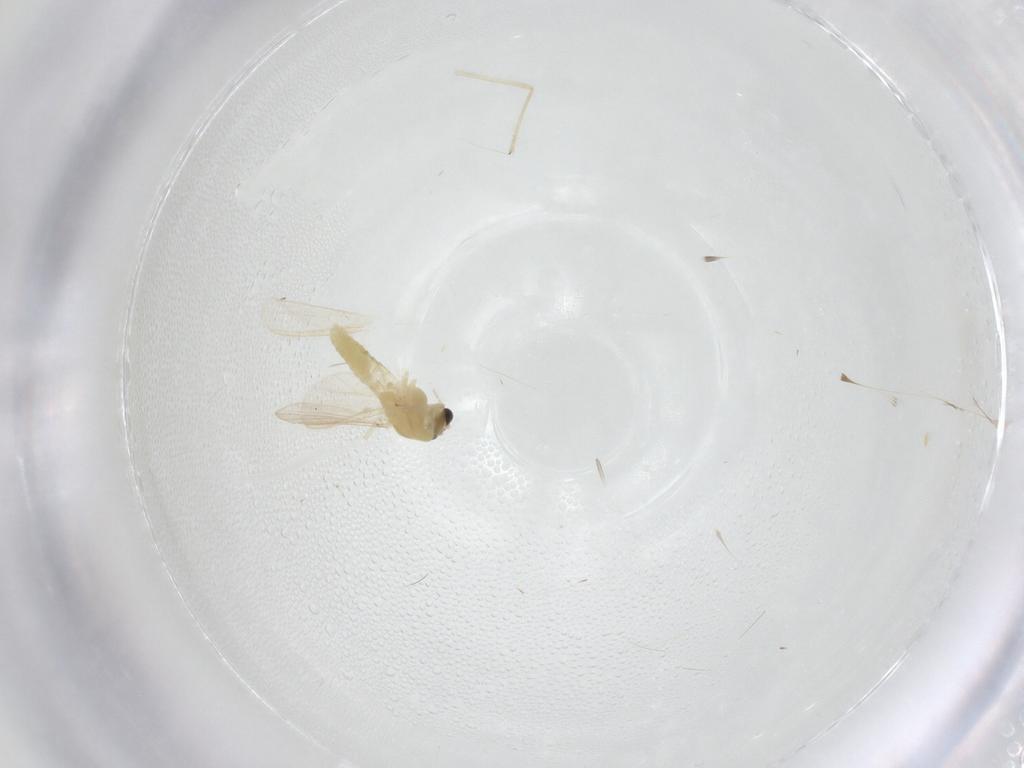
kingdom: Animalia
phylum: Arthropoda
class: Insecta
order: Diptera
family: Chironomidae
